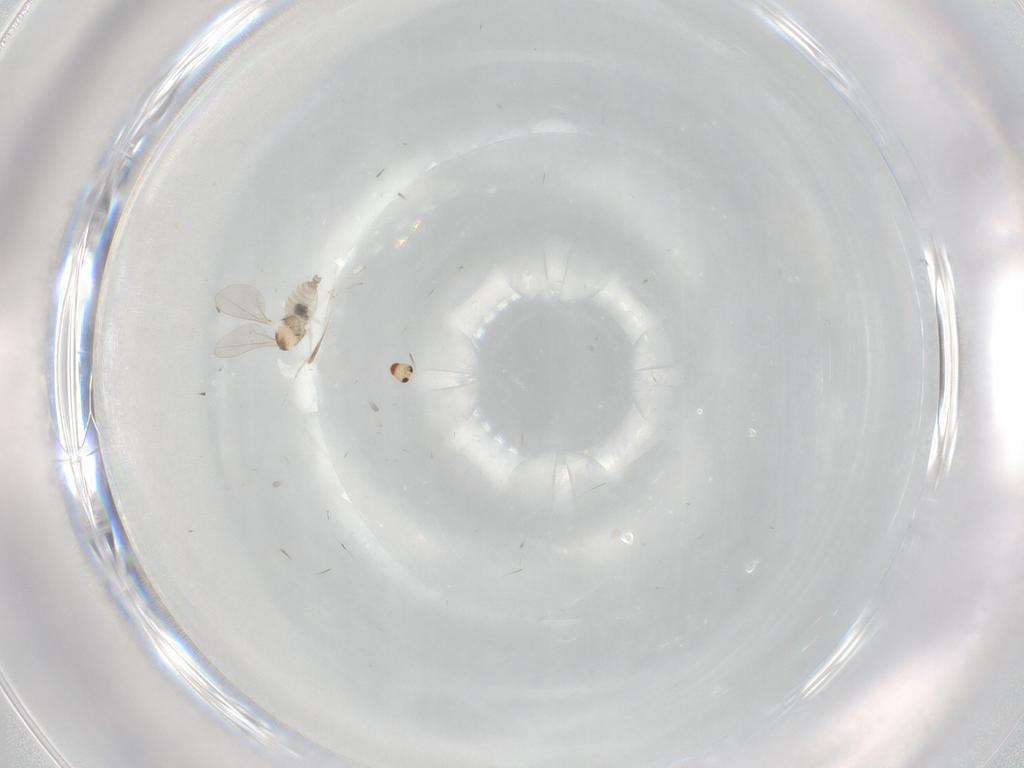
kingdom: Animalia
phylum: Arthropoda
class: Insecta
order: Diptera
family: Cecidomyiidae
